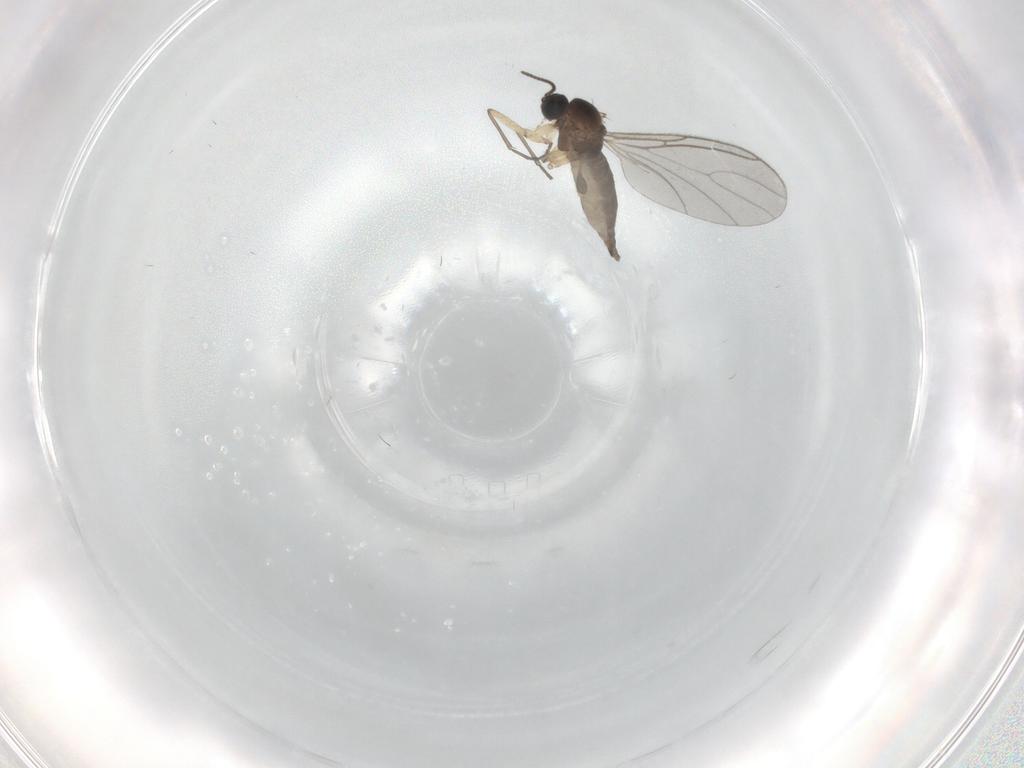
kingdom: Animalia
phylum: Arthropoda
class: Insecta
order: Diptera
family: Sciaridae
